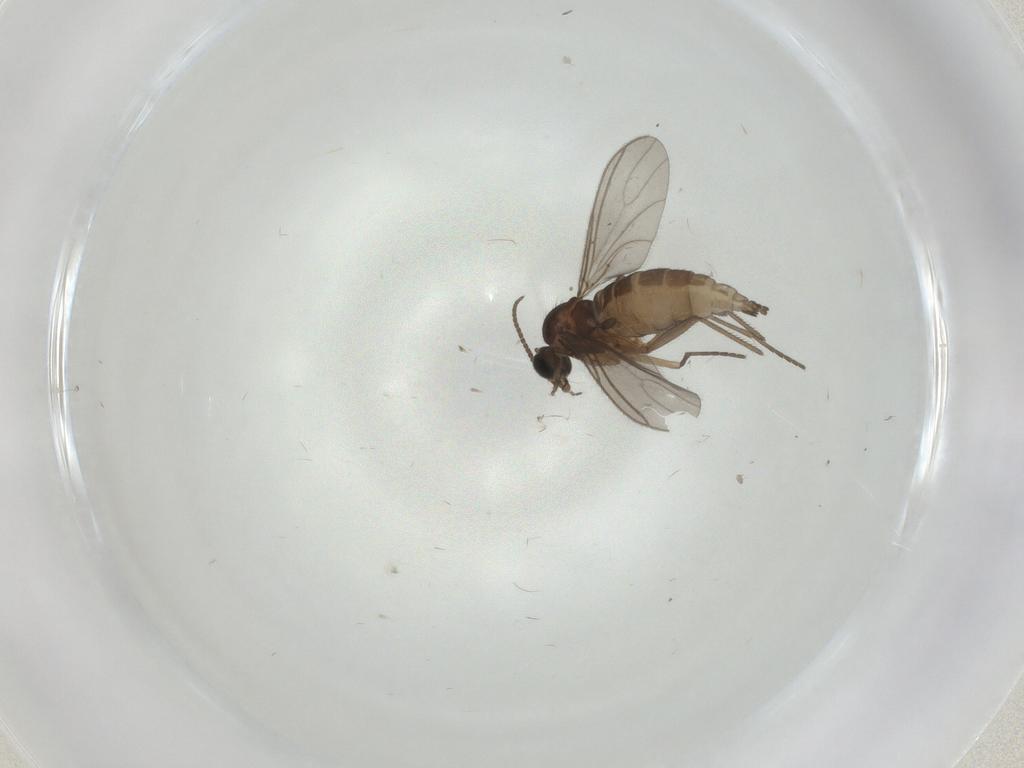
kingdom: Animalia
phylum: Arthropoda
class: Insecta
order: Diptera
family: Sciaridae
